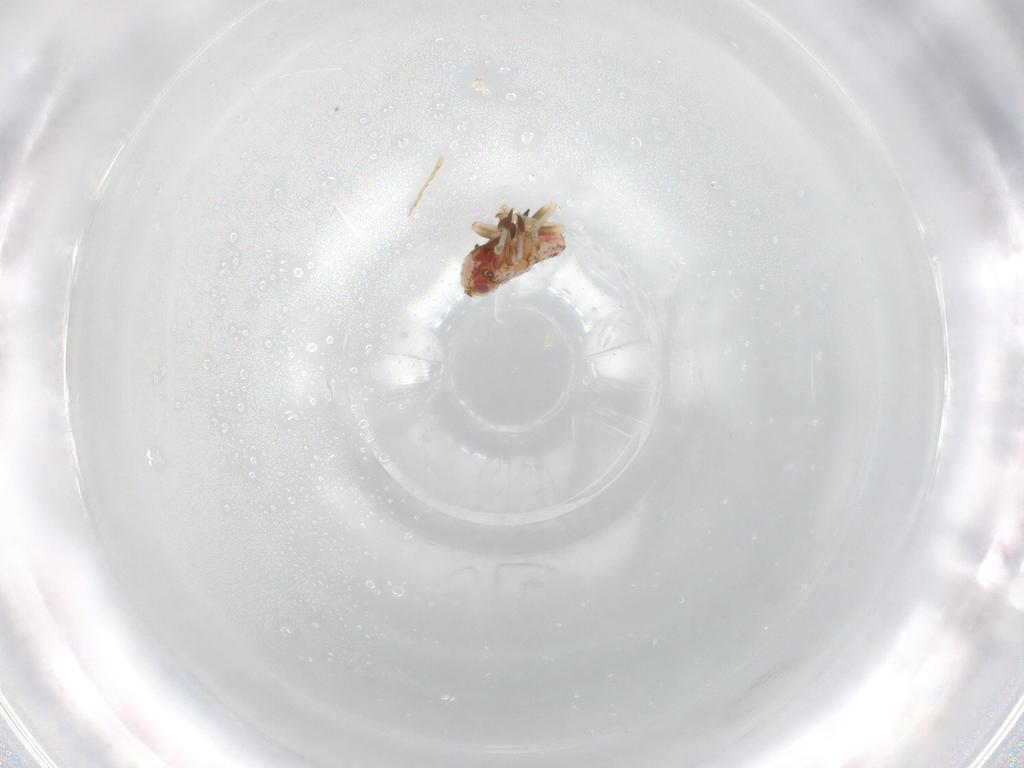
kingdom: Animalia
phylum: Arthropoda
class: Insecta
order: Hemiptera
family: Tropiduchidae
